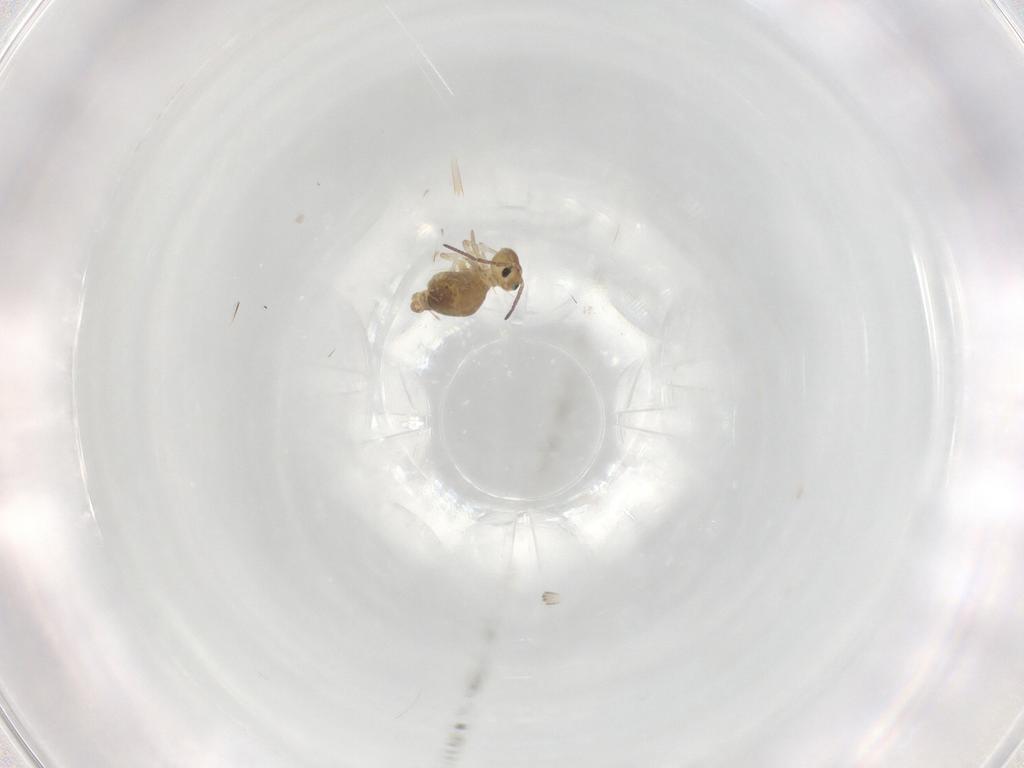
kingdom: Animalia
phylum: Arthropoda
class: Collembola
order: Symphypleona
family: Bourletiellidae
